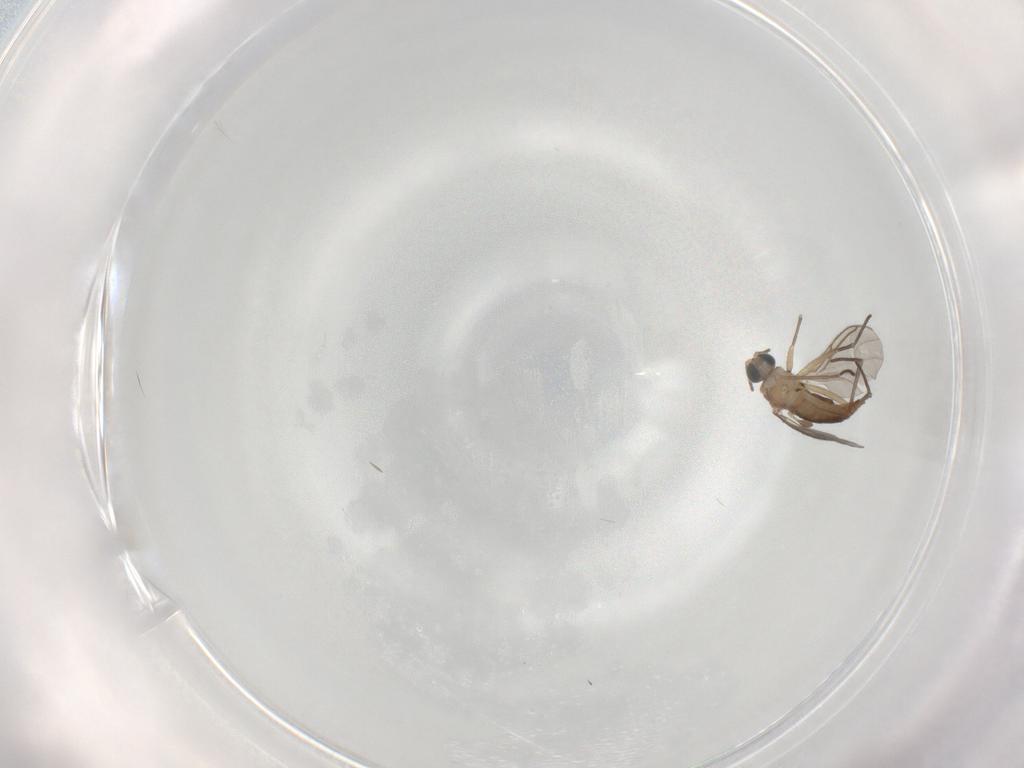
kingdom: Animalia
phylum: Arthropoda
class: Insecta
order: Diptera
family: Sciaridae
